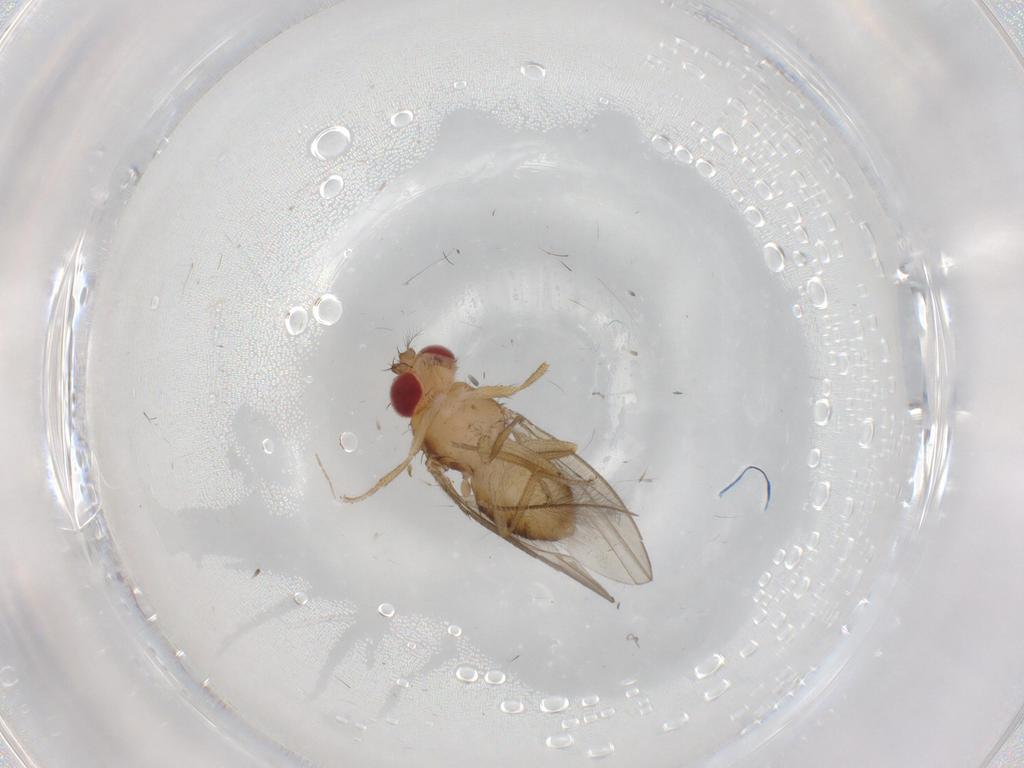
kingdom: Animalia
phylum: Arthropoda
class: Insecta
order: Diptera
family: Drosophilidae
